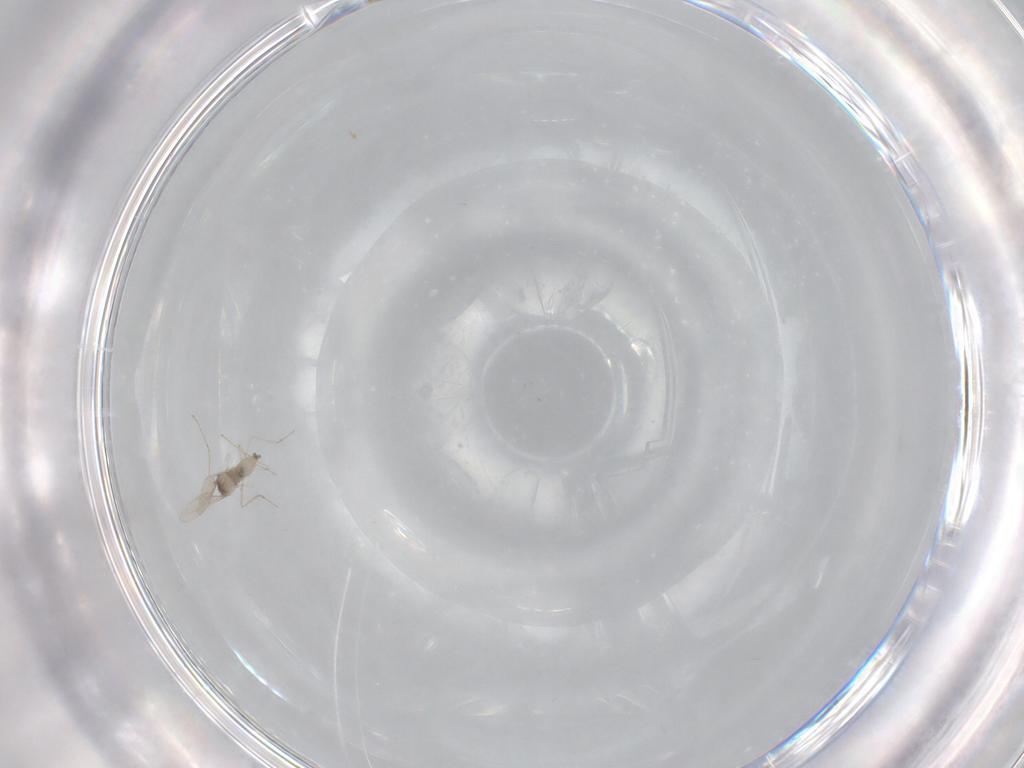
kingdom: Animalia
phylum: Arthropoda
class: Insecta
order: Diptera
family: Cecidomyiidae
